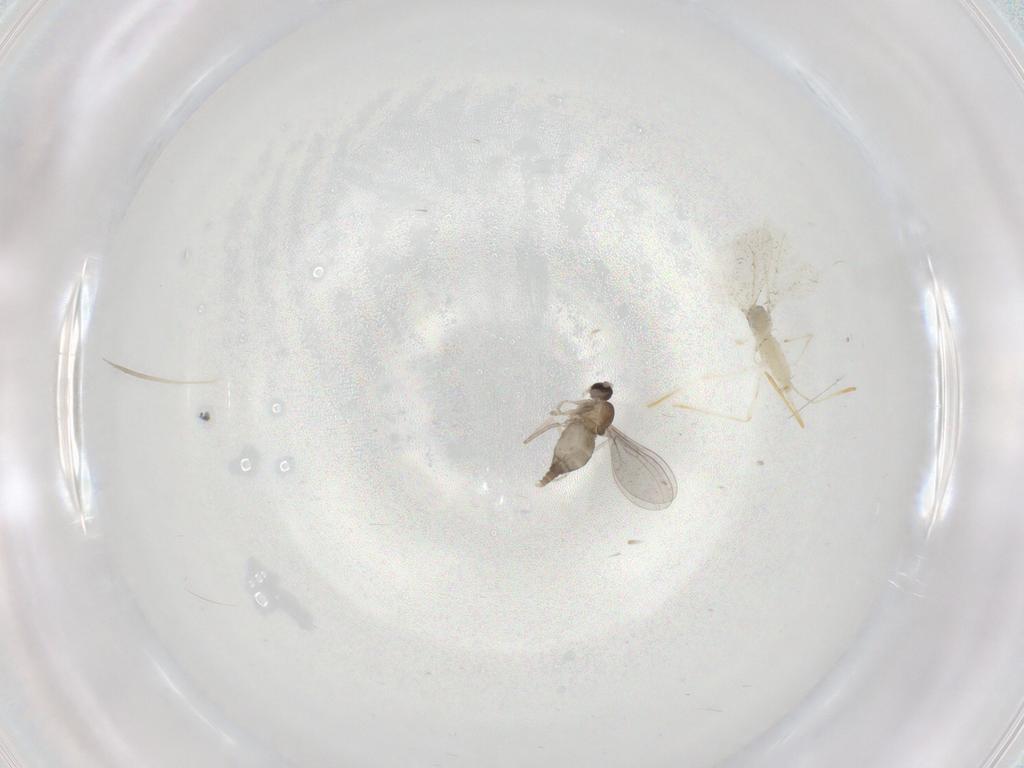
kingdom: Animalia
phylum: Arthropoda
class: Insecta
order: Diptera
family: Cecidomyiidae
